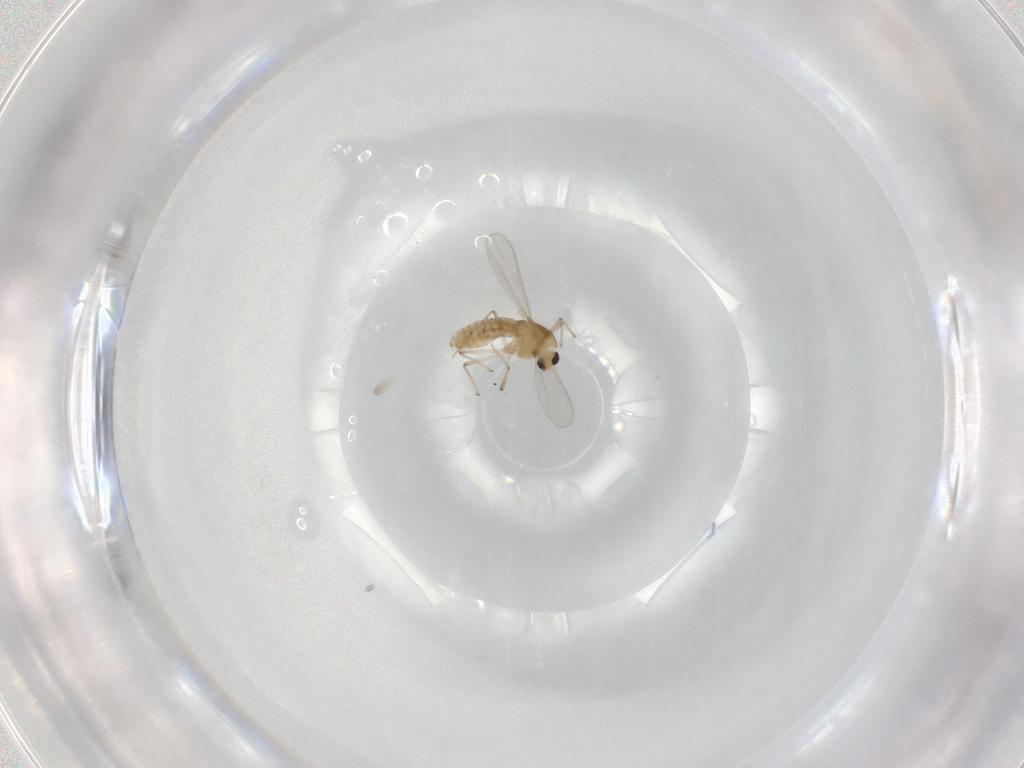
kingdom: Animalia
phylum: Arthropoda
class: Insecta
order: Diptera
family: Chironomidae
